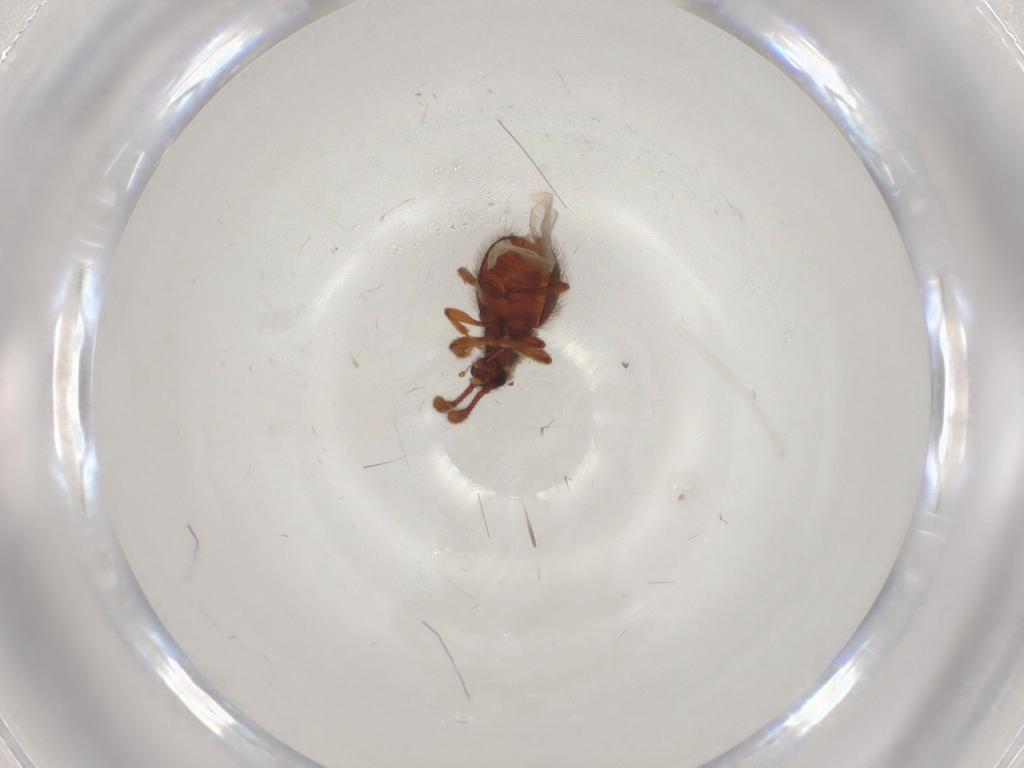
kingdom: Animalia
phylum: Arthropoda
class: Insecta
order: Coleoptera
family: Staphylinidae
